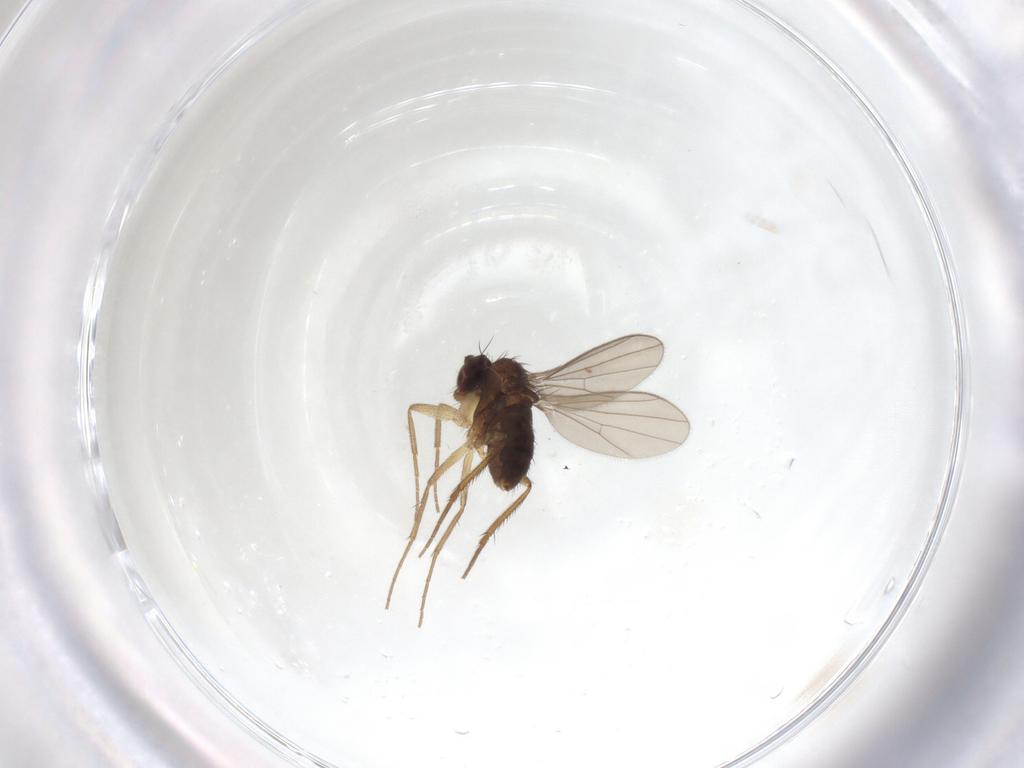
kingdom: Animalia
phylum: Arthropoda
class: Insecta
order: Diptera
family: Dolichopodidae
